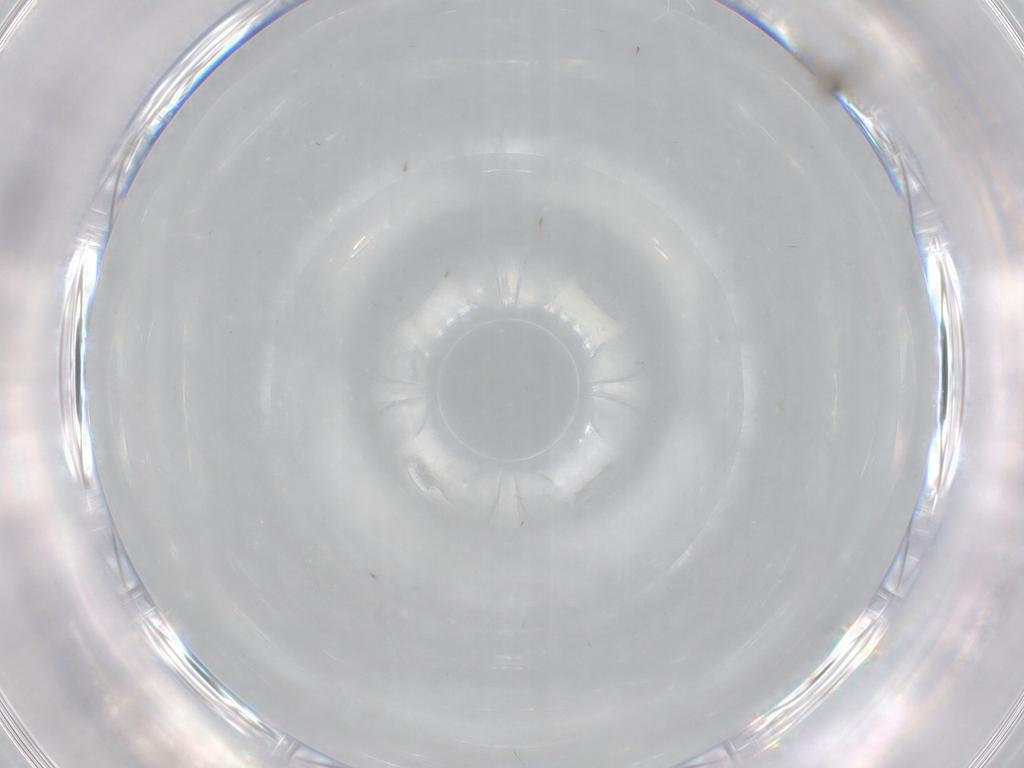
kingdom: Animalia
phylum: Arthropoda
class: Insecta
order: Diptera
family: Cecidomyiidae
